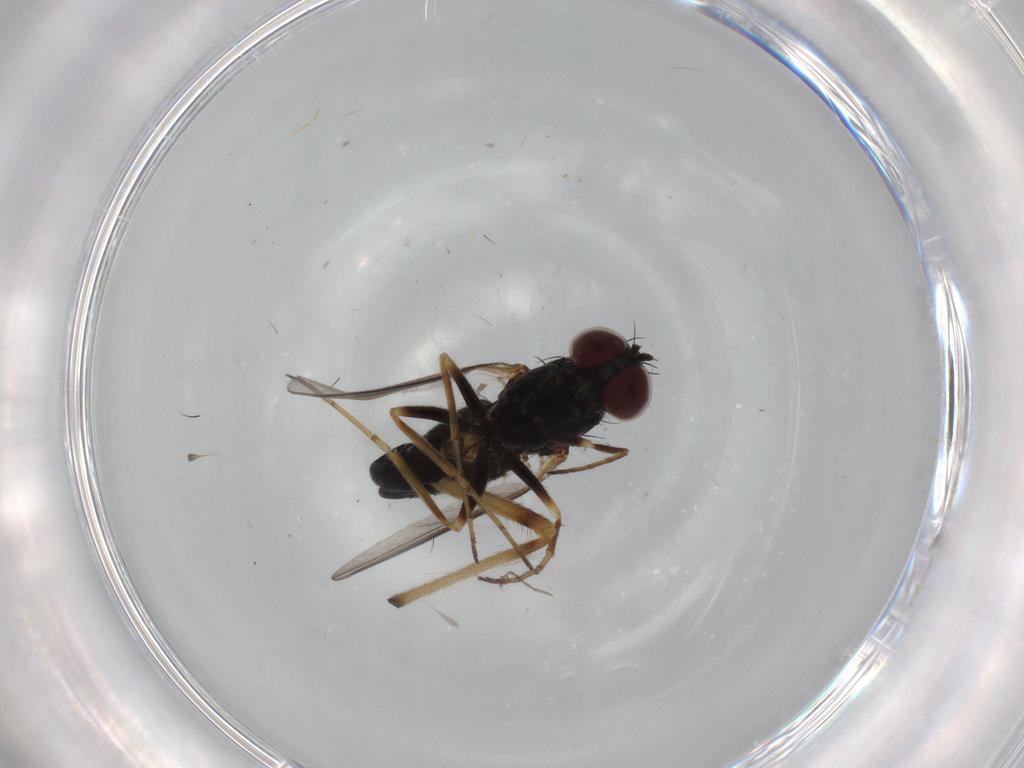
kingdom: Animalia
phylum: Arthropoda
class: Insecta
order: Diptera
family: Dolichopodidae
